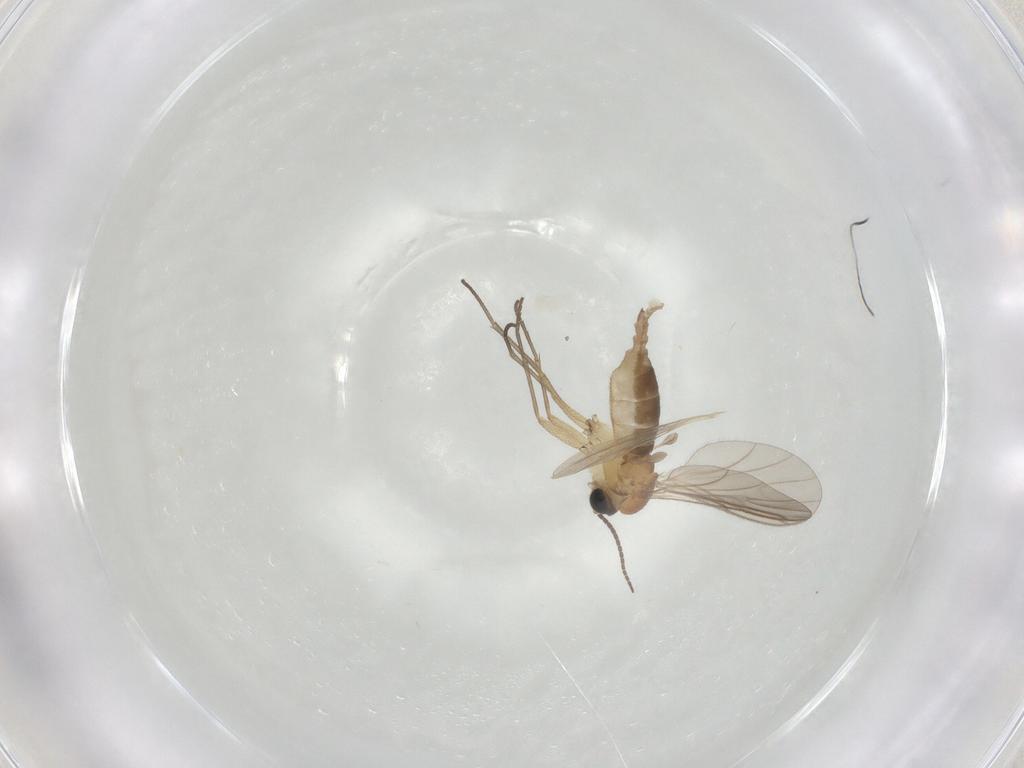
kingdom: Animalia
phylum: Arthropoda
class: Insecta
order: Diptera
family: Sciaridae
